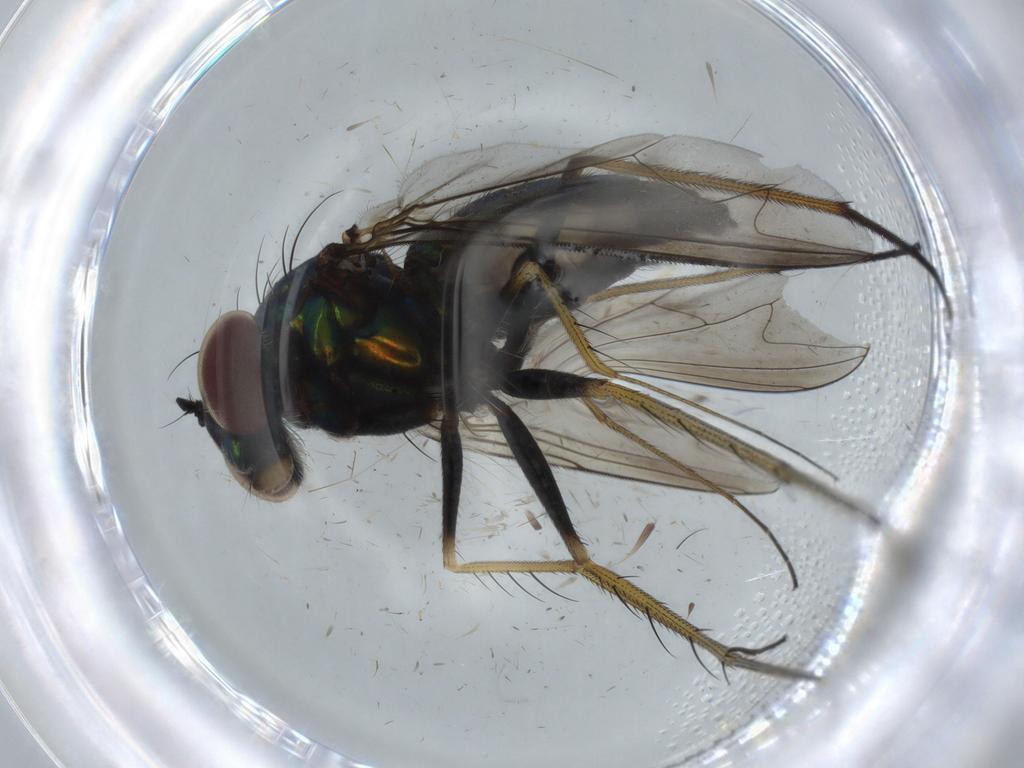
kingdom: Animalia
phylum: Arthropoda
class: Insecta
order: Diptera
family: Dolichopodidae
